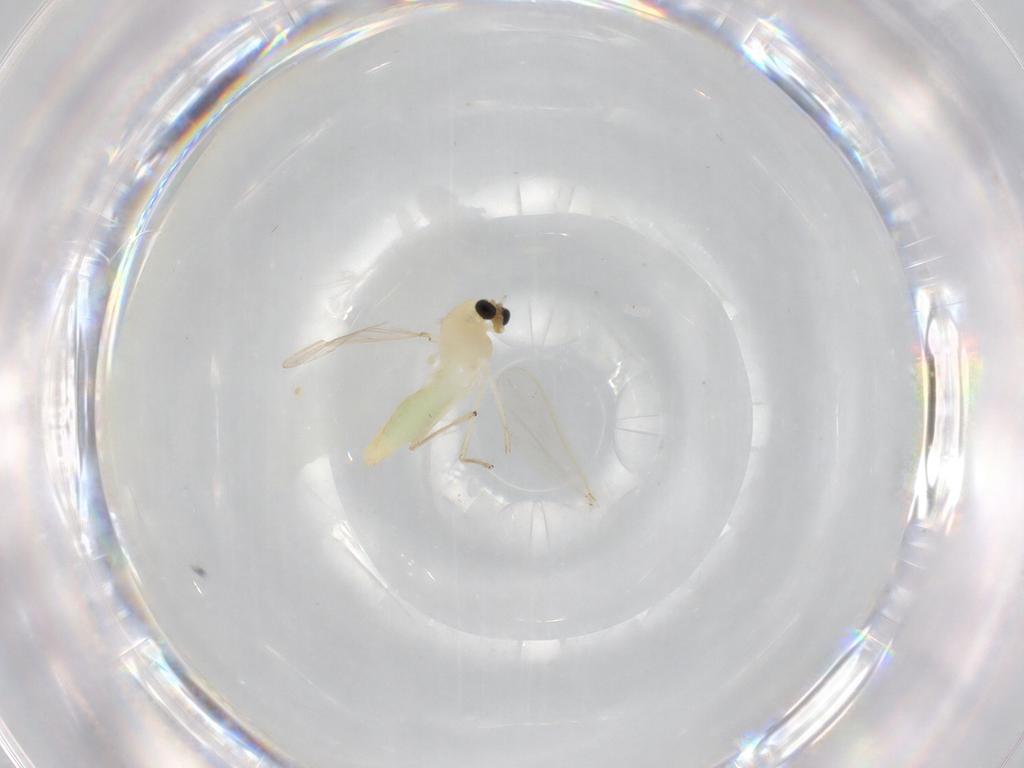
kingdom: Animalia
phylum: Arthropoda
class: Insecta
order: Diptera
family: Chironomidae
